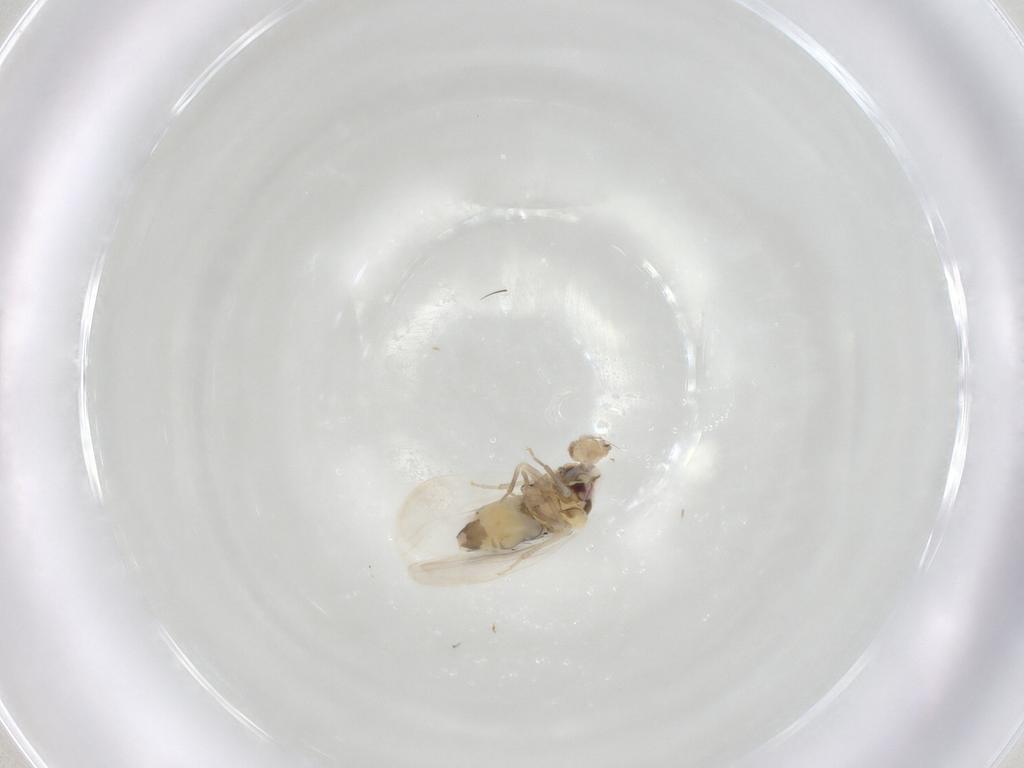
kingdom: Animalia
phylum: Arthropoda
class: Insecta
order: Hemiptera
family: Aleyrodidae
